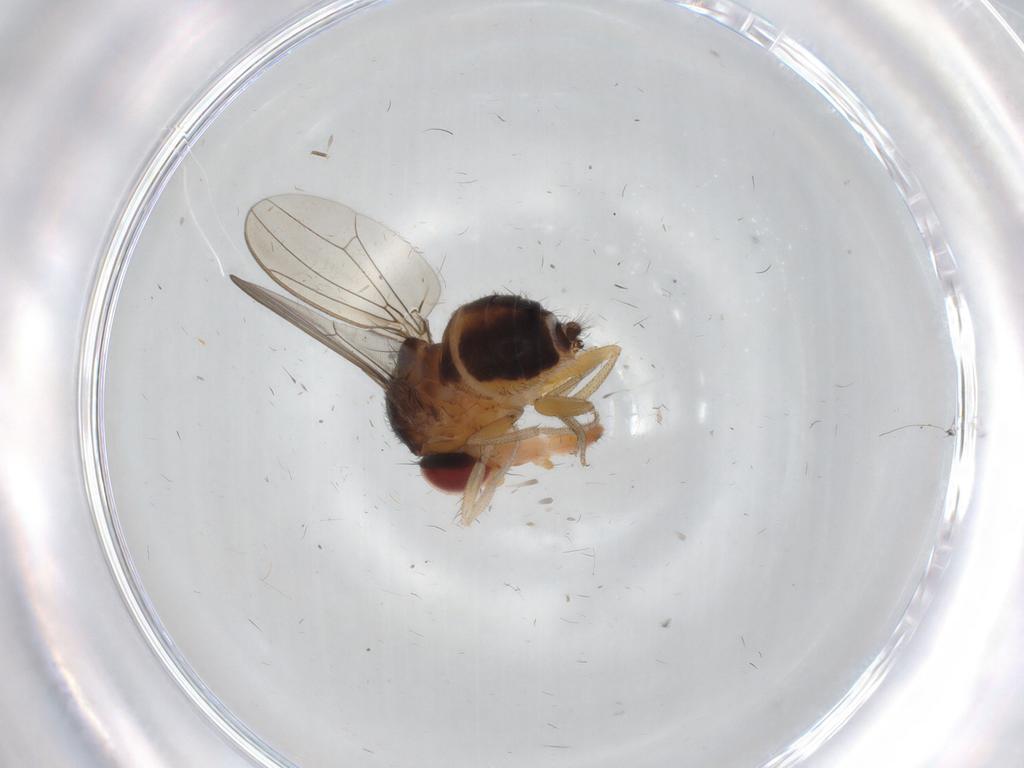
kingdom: Animalia
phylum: Arthropoda
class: Insecta
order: Diptera
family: Drosophilidae
